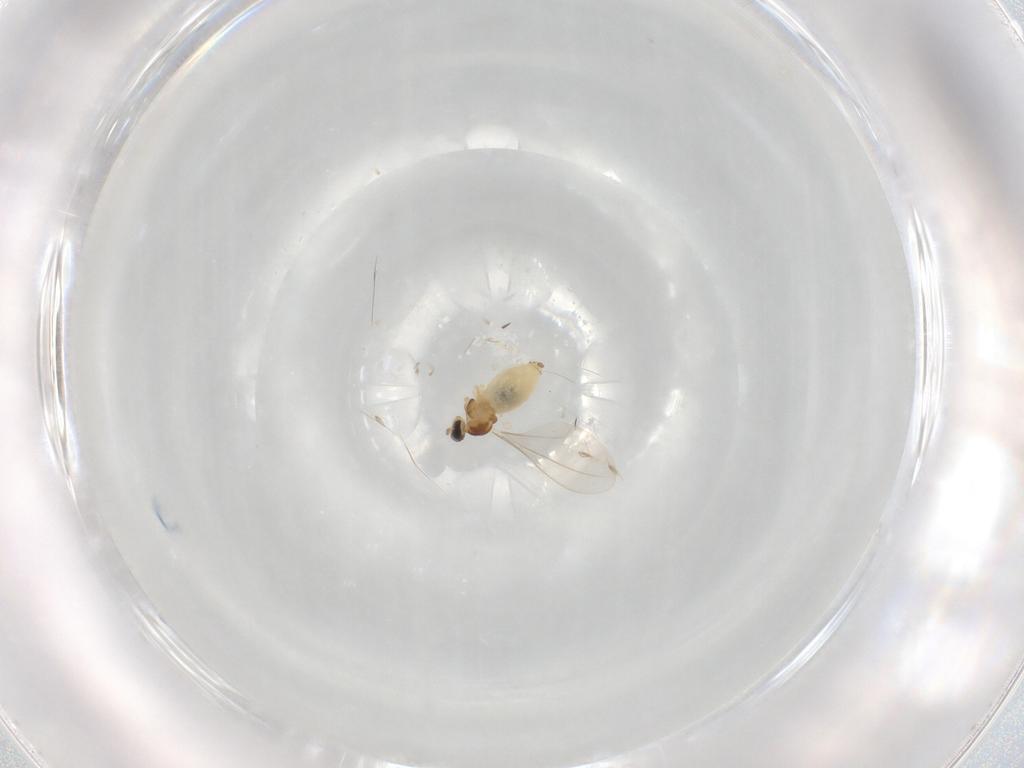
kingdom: Animalia
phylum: Arthropoda
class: Insecta
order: Diptera
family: Cecidomyiidae
